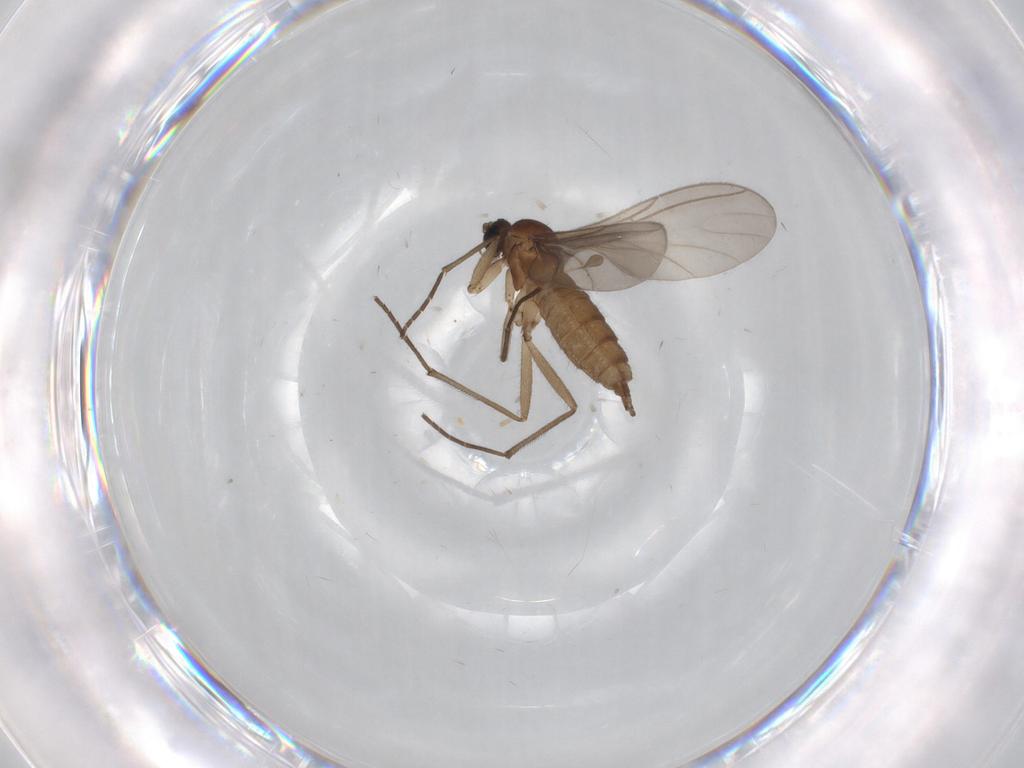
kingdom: Animalia
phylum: Arthropoda
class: Insecta
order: Diptera
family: Sciaridae
